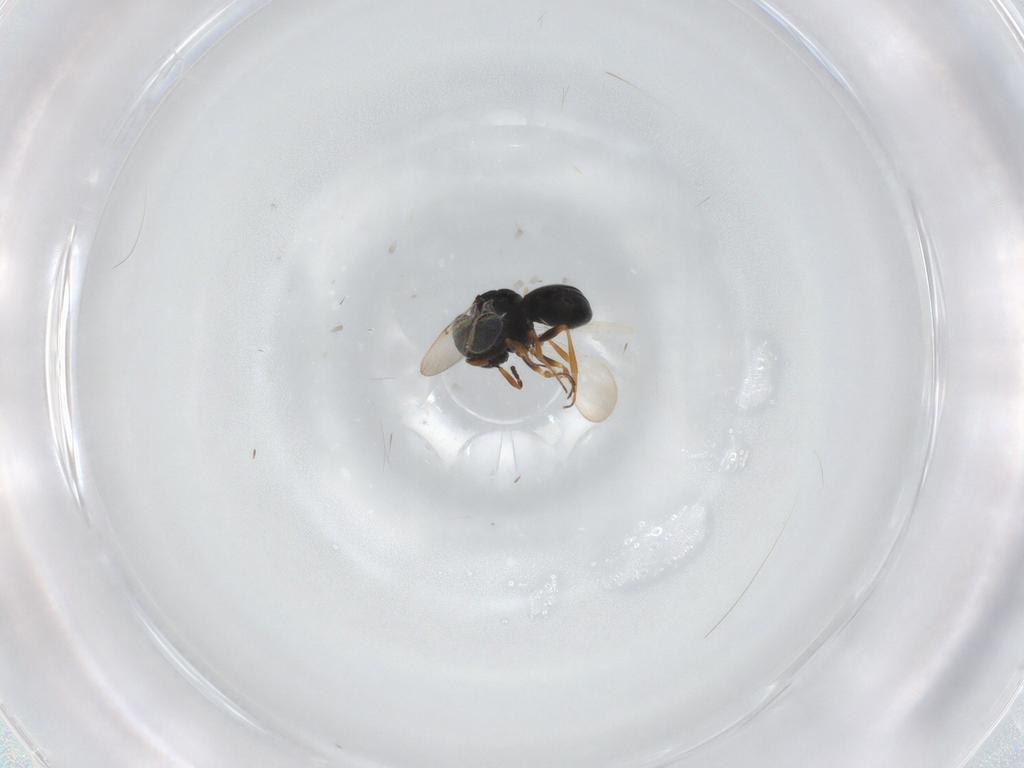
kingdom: Animalia
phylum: Arthropoda
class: Insecta
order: Hymenoptera
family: Scelionidae
